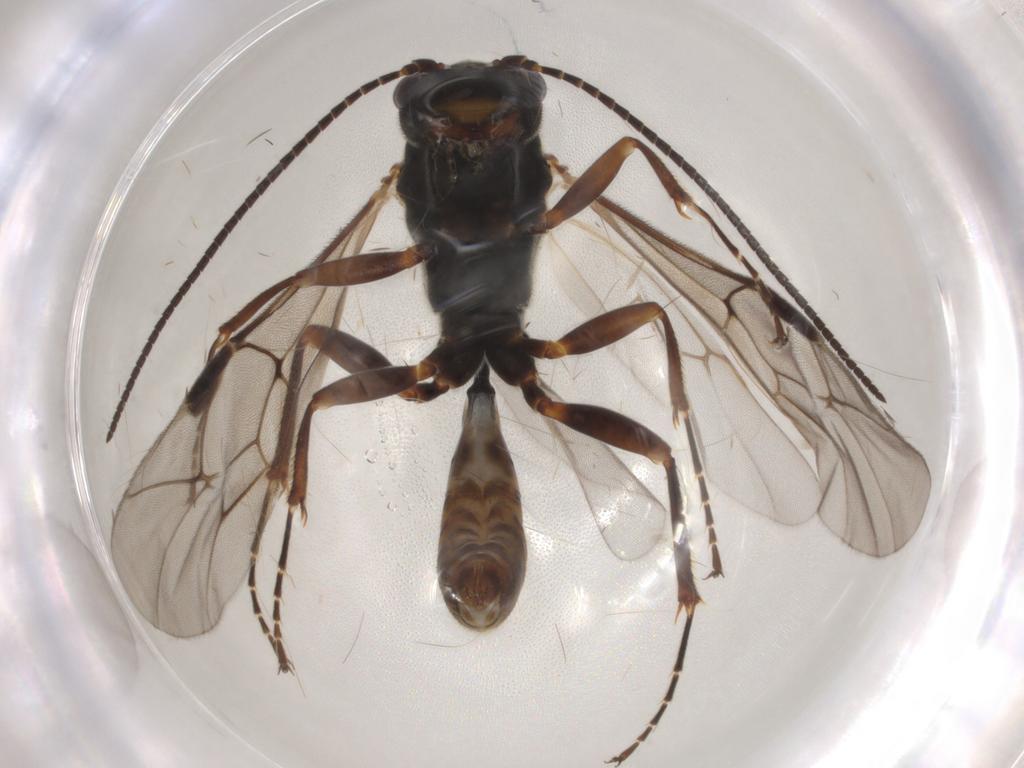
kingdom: Animalia
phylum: Arthropoda
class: Insecta
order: Hymenoptera
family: Ichneumonidae
